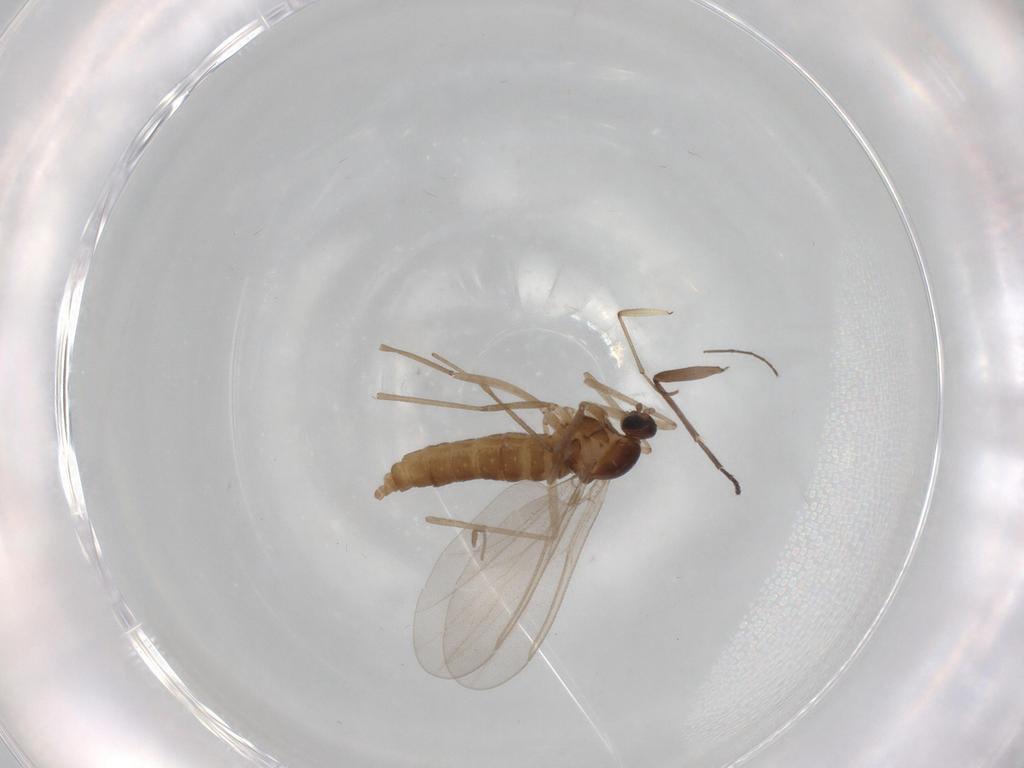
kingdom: Animalia
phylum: Arthropoda
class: Insecta
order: Diptera
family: Cecidomyiidae
